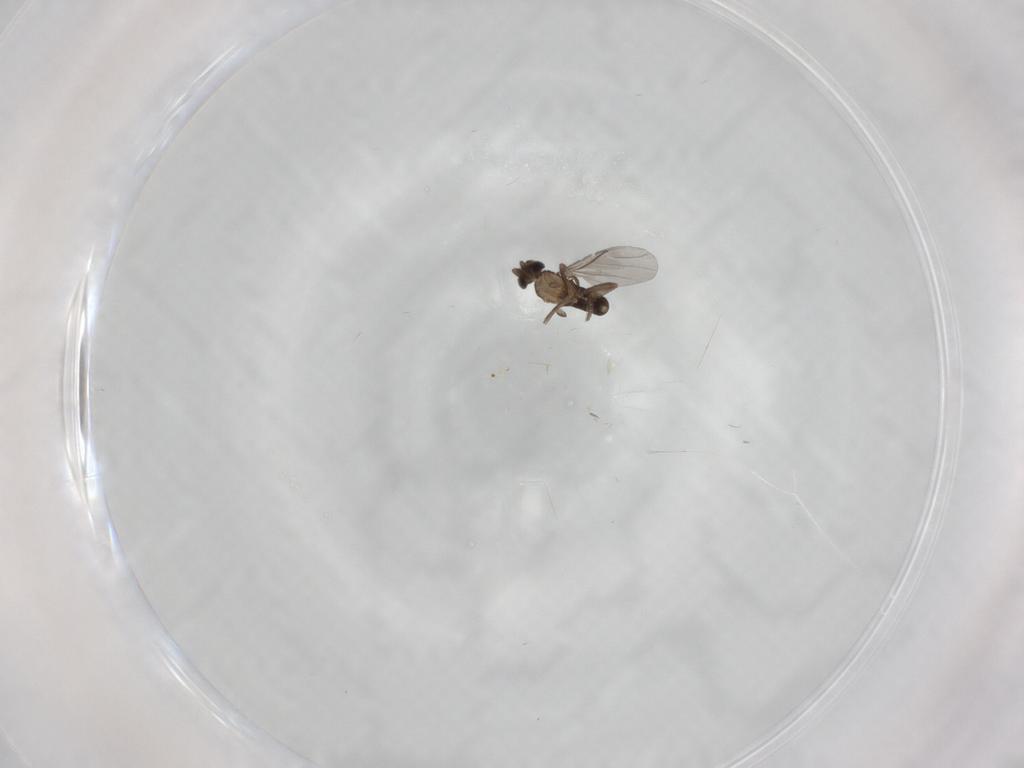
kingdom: Animalia
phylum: Arthropoda
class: Insecta
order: Diptera
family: Phoridae
